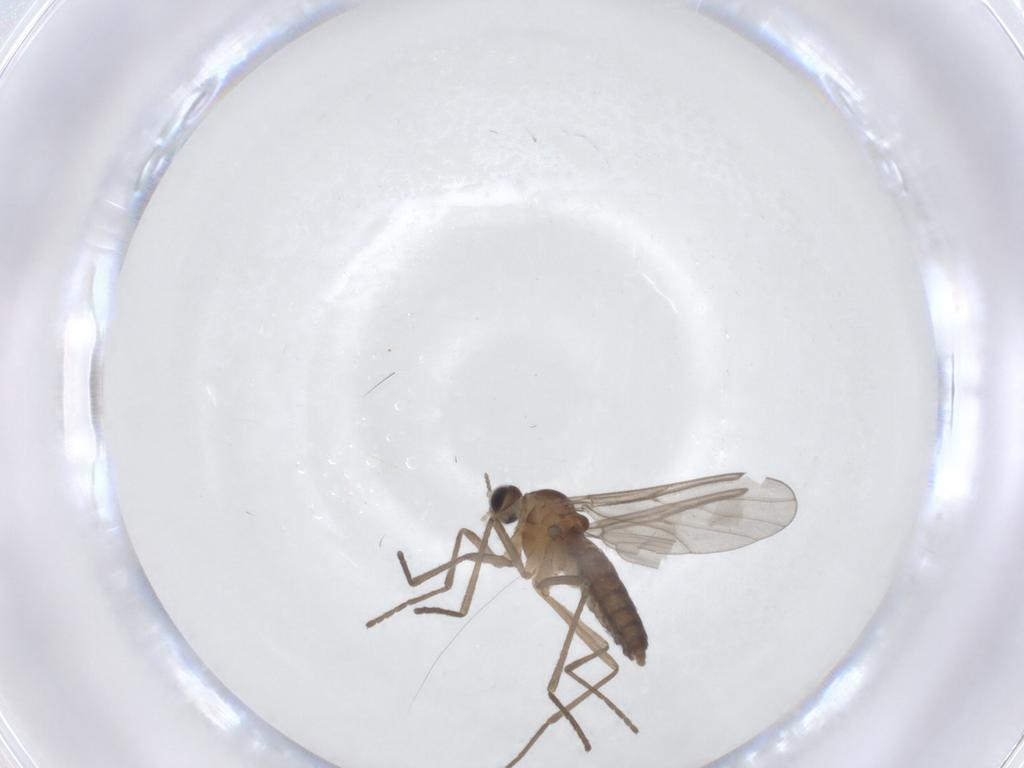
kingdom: Animalia
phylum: Arthropoda
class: Insecta
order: Diptera
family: Cecidomyiidae
